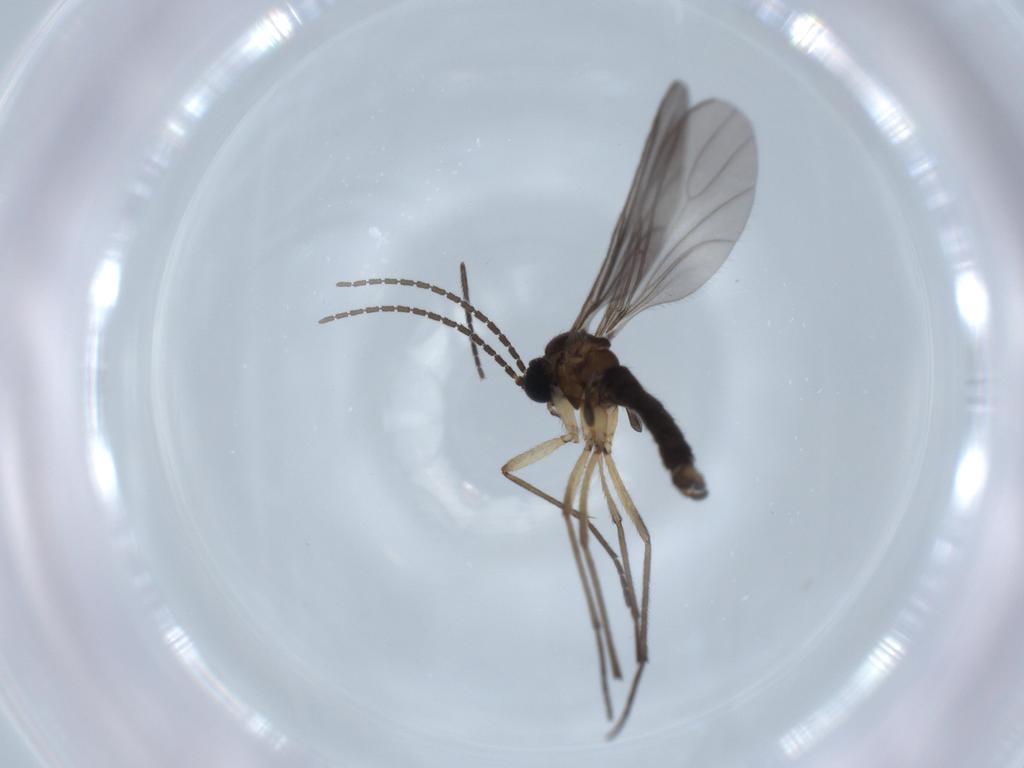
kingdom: Animalia
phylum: Arthropoda
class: Insecta
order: Diptera
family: Sciaridae
